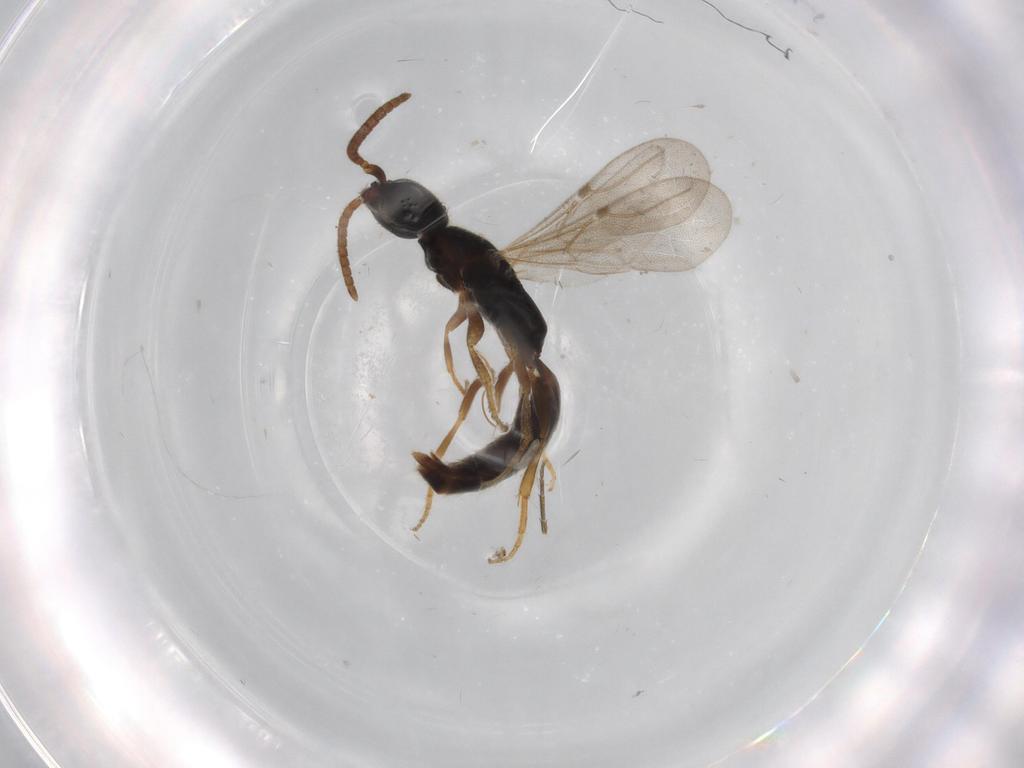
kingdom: Animalia
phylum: Arthropoda
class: Insecta
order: Hymenoptera
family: Bethylidae
